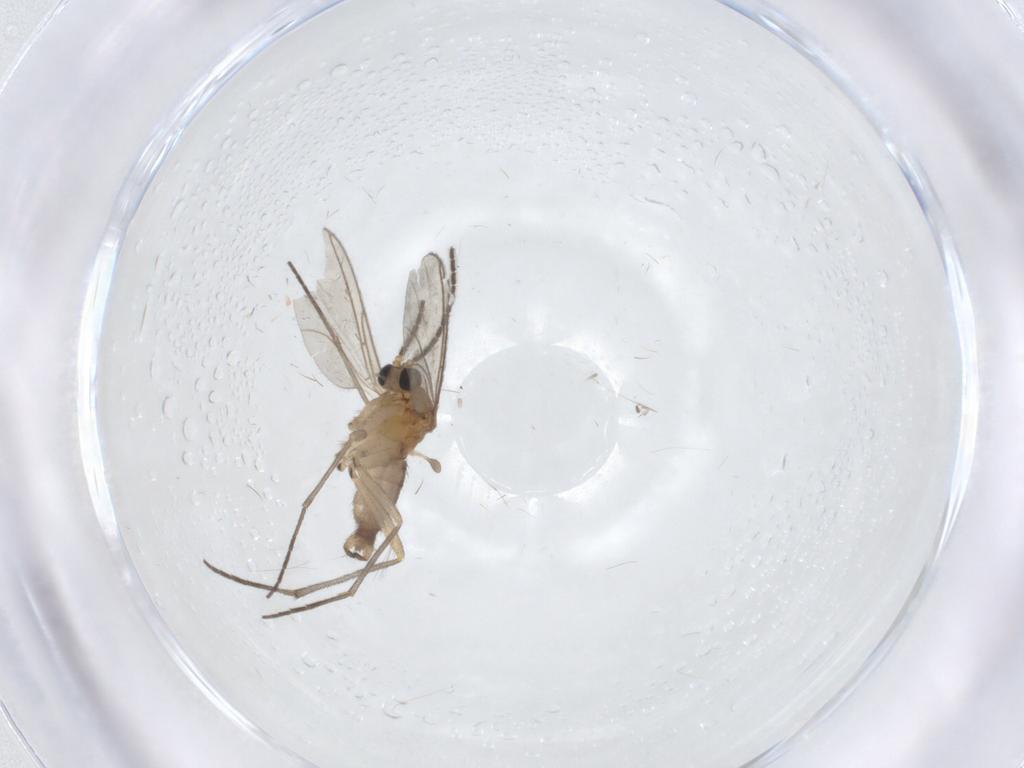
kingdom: Animalia
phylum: Arthropoda
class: Insecta
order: Diptera
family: Sciaridae
